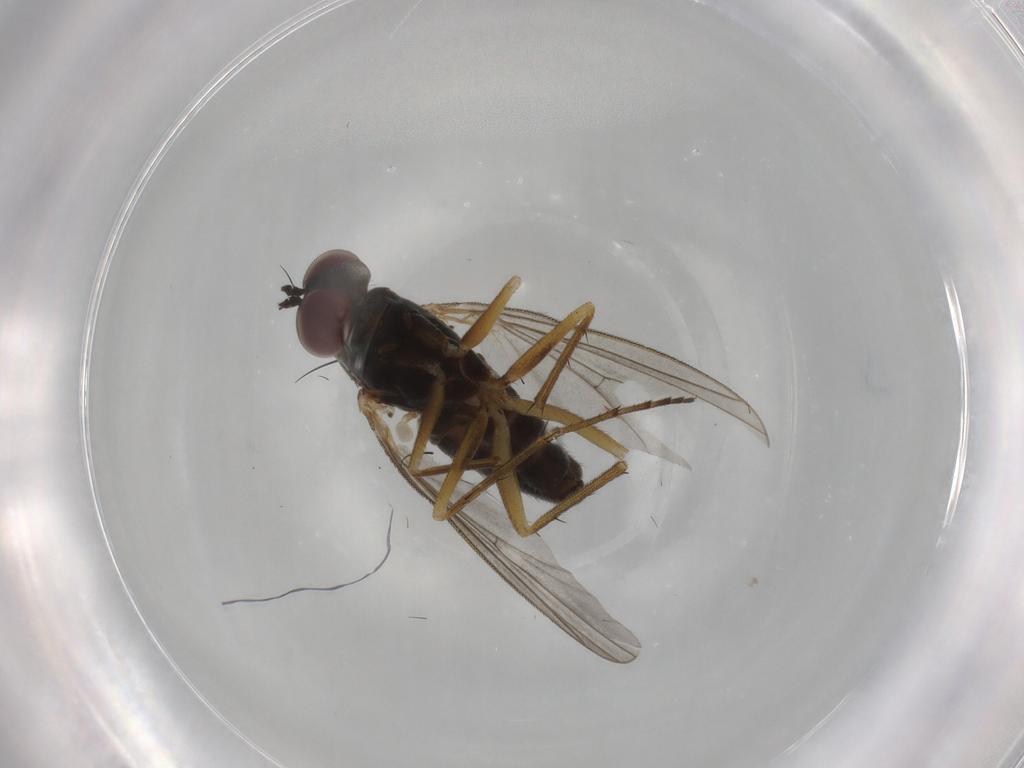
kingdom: Animalia
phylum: Arthropoda
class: Insecta
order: Diptera
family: Dolichopodidae
